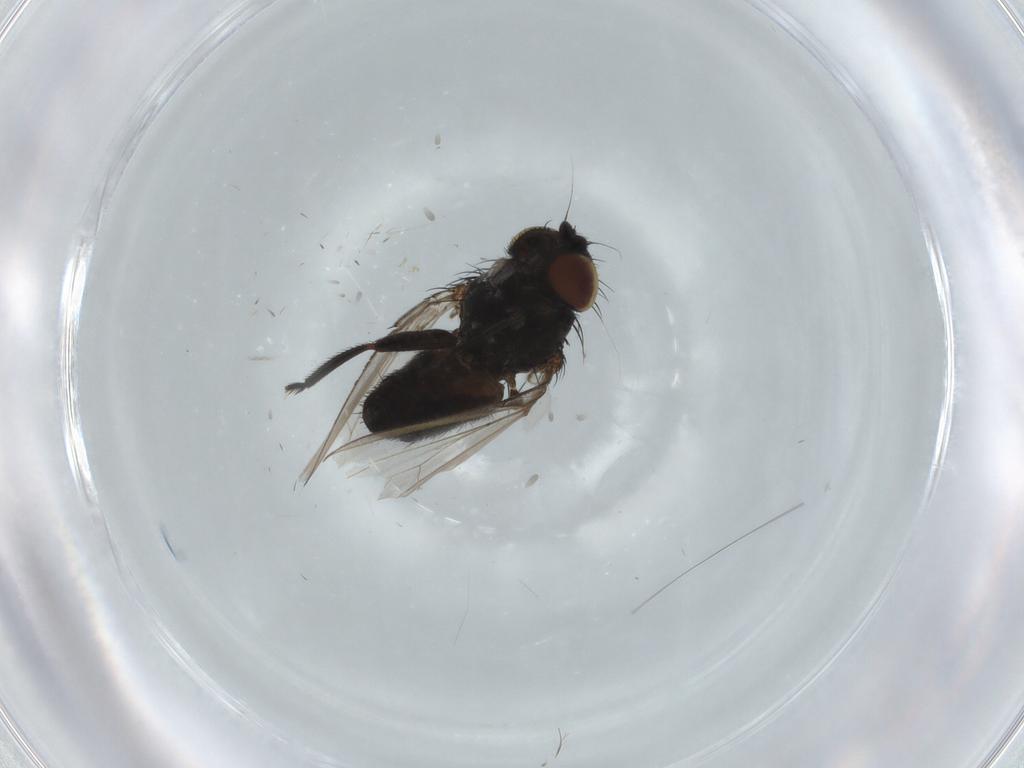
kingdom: Animalia
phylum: Arthropoda
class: Insecta
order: Diptera
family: Milichiidae
